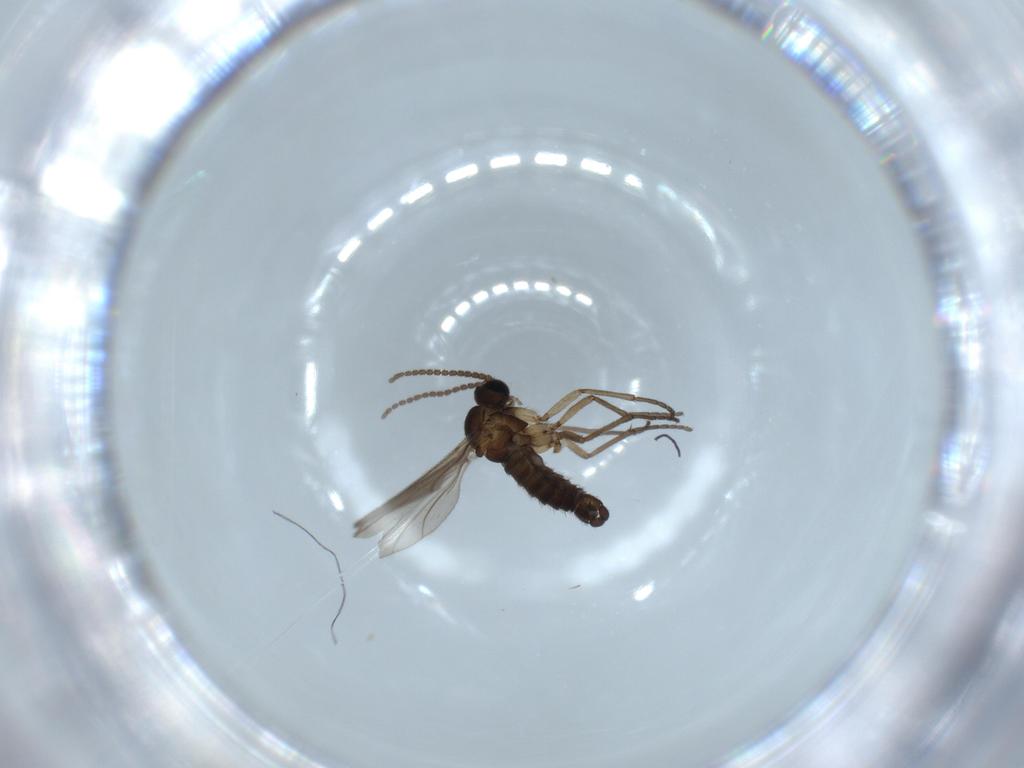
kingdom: Animalia
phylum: Arthropoda
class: Insecta
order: Diptera
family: Sciaridae
